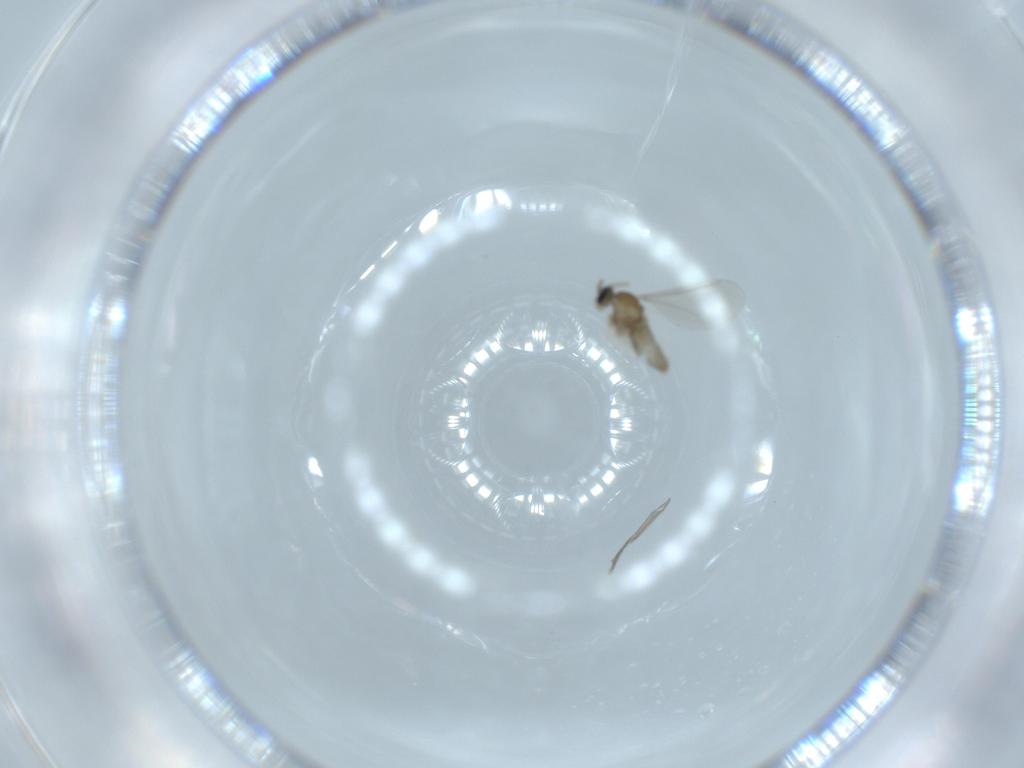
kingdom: Animalia
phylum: Arthropoda
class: Insecta
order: Diptera
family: Cecidomyiidae
